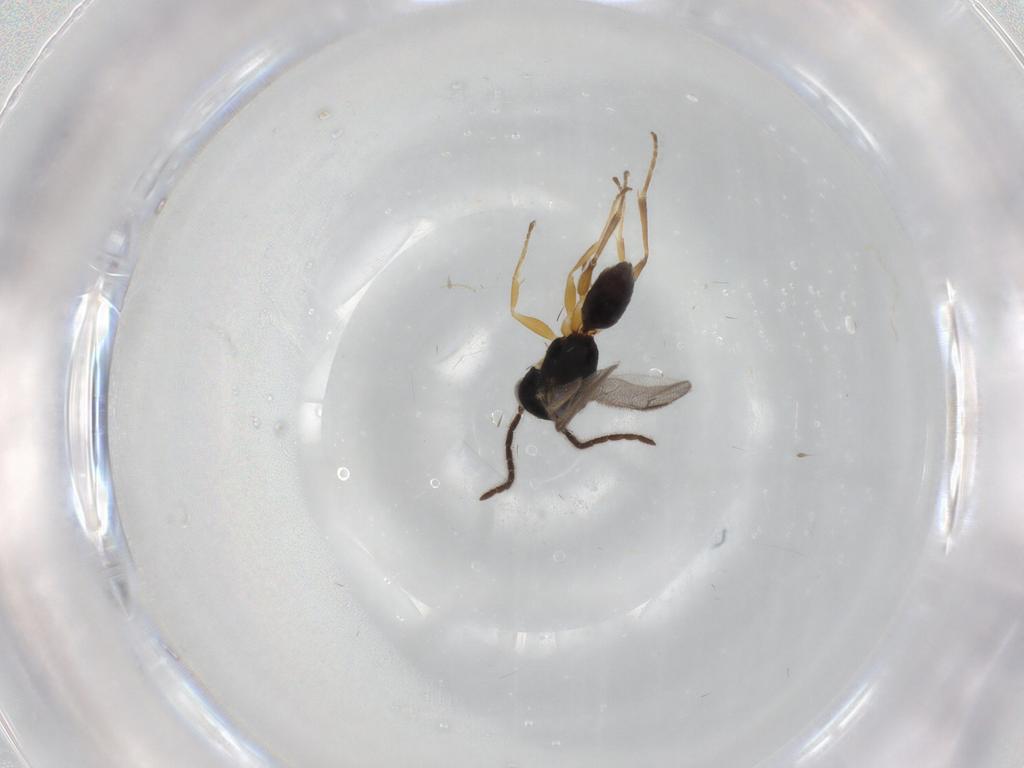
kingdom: Animalia
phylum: Arthropoda
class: Insecta
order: Hymenoptera
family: Dryinidae
